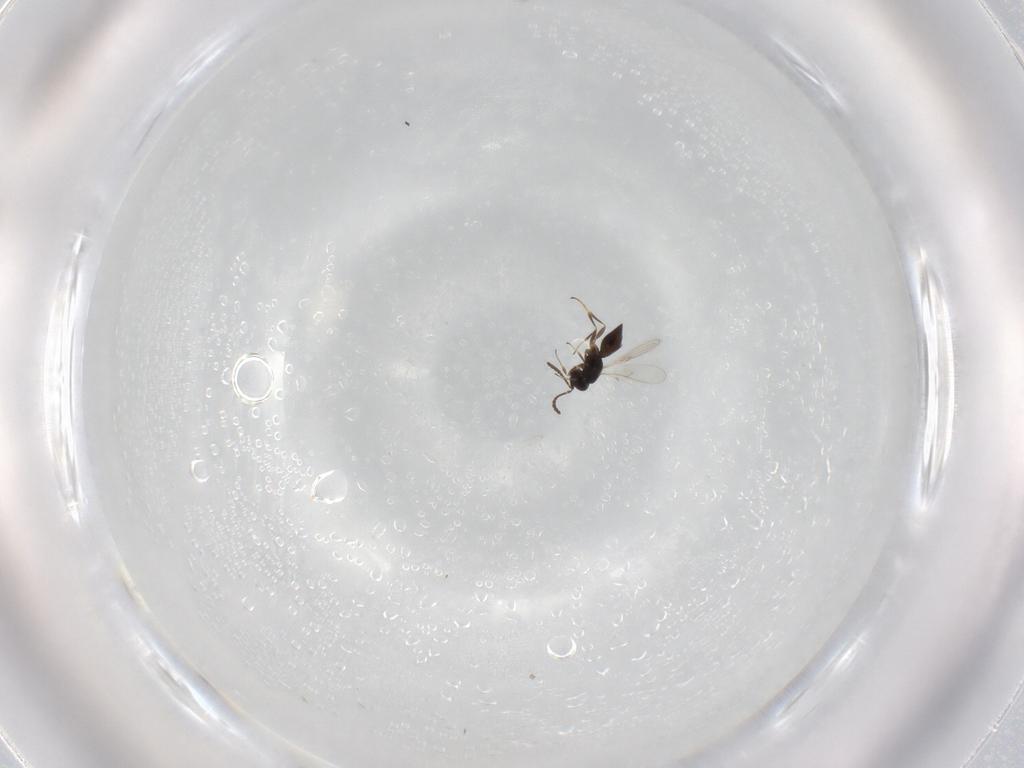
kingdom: Animalia
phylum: Arthropoda
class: Insecta
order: Hymenoptera
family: Scelionidae
